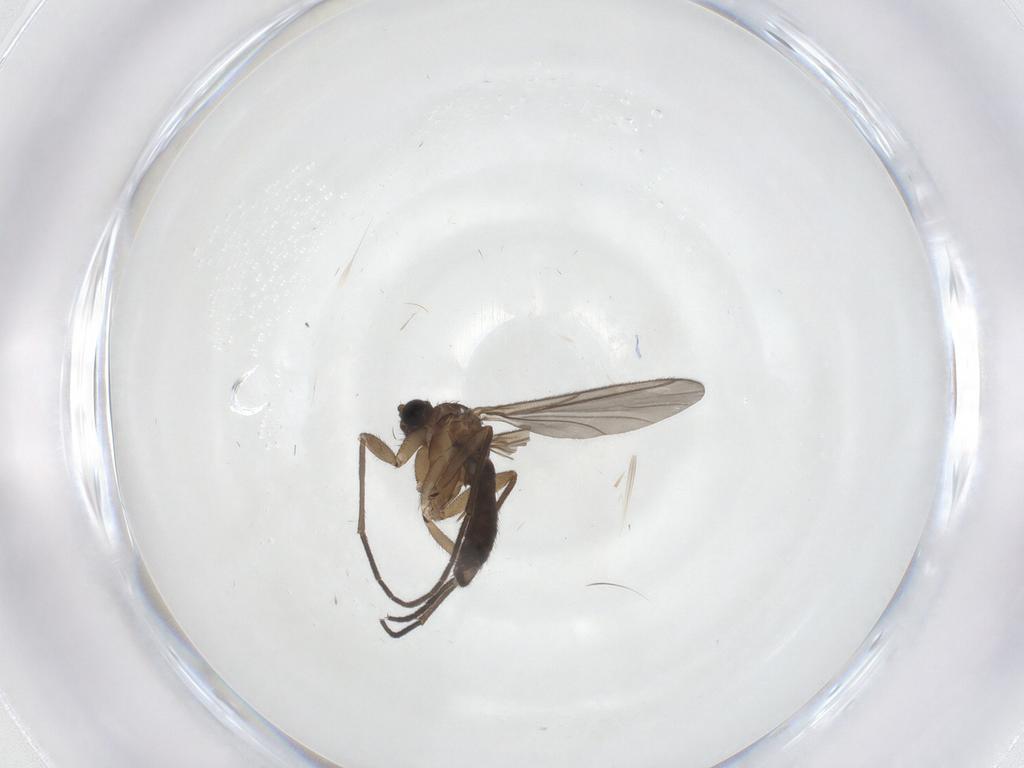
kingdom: Animalia
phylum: Arthropoda
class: Insecta
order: Diptera
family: Sciaridae
